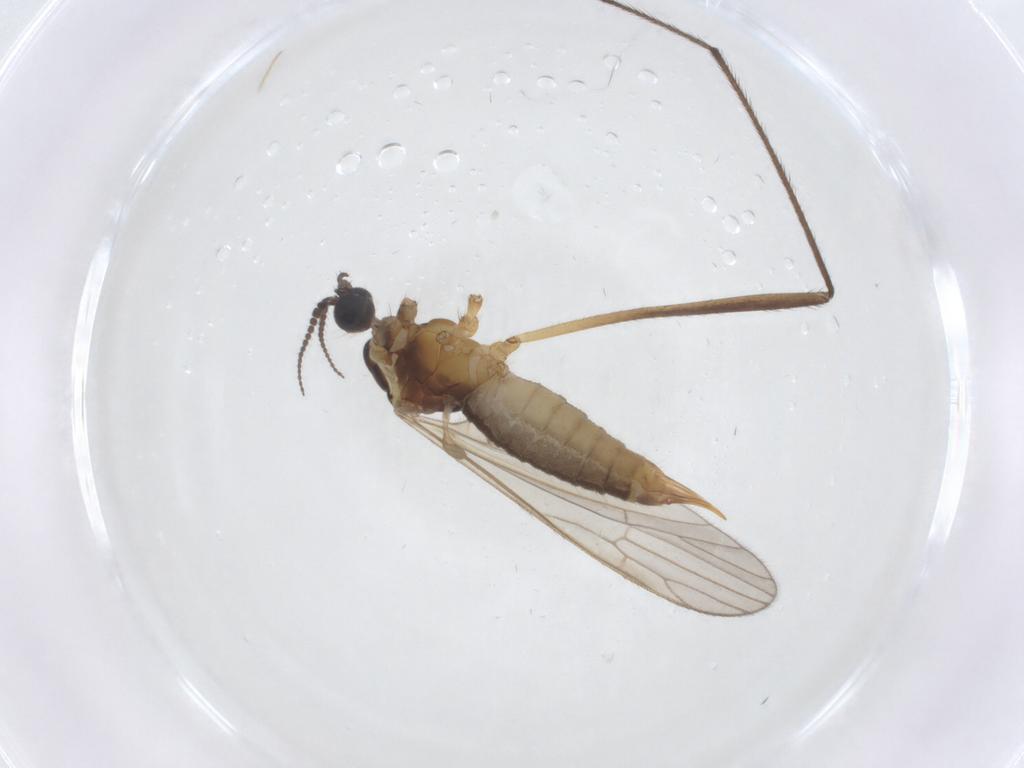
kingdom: Animalia
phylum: Arthropoda
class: Insecta
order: Diptera
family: Agromyzidae
